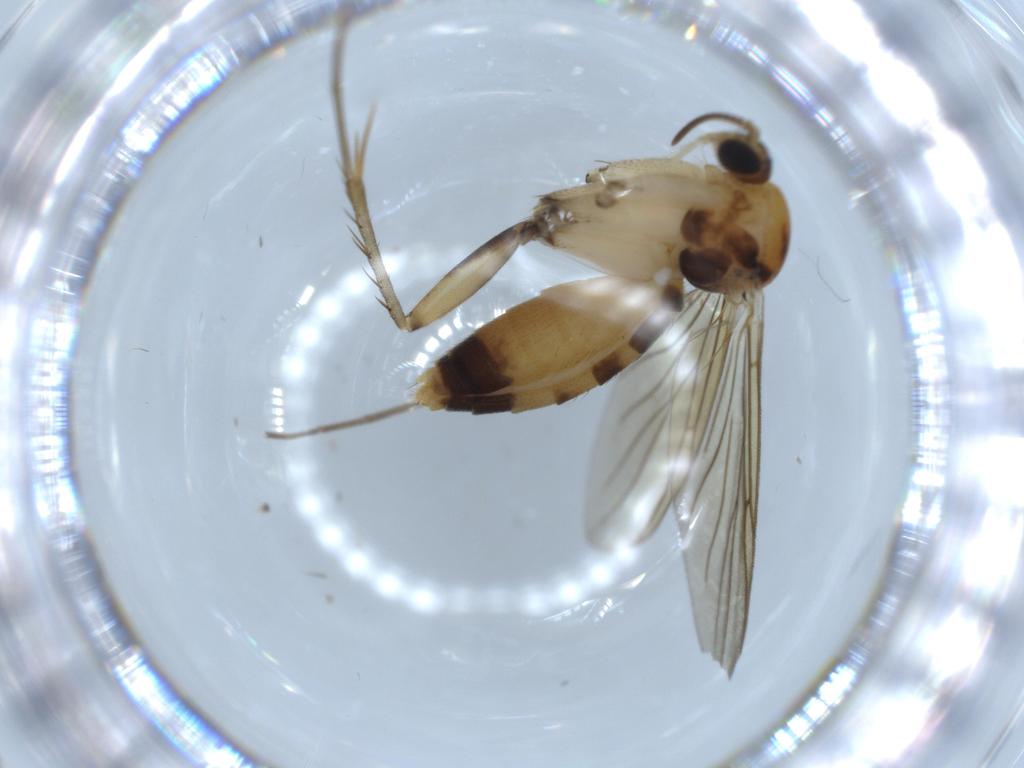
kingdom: Animalia
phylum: Arthropoda
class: Insecta
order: Diptera
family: Mycetophilidae
